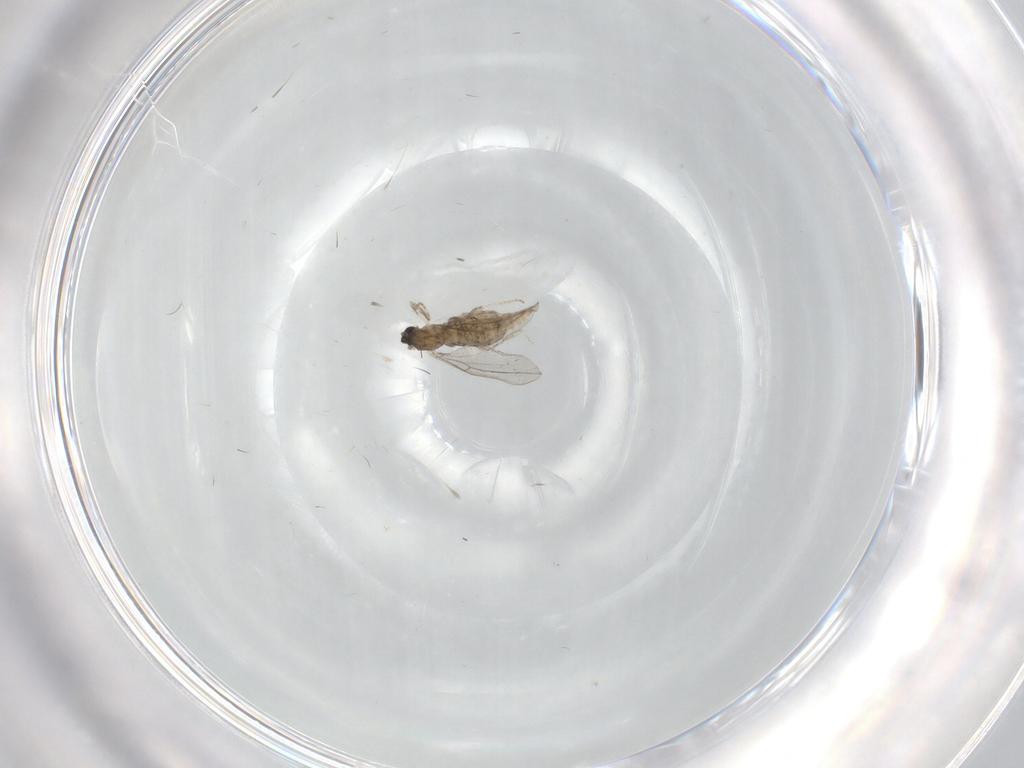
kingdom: Animalia
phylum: Arthropoda
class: Insecta
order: Diptera
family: Cecidomyiidae
